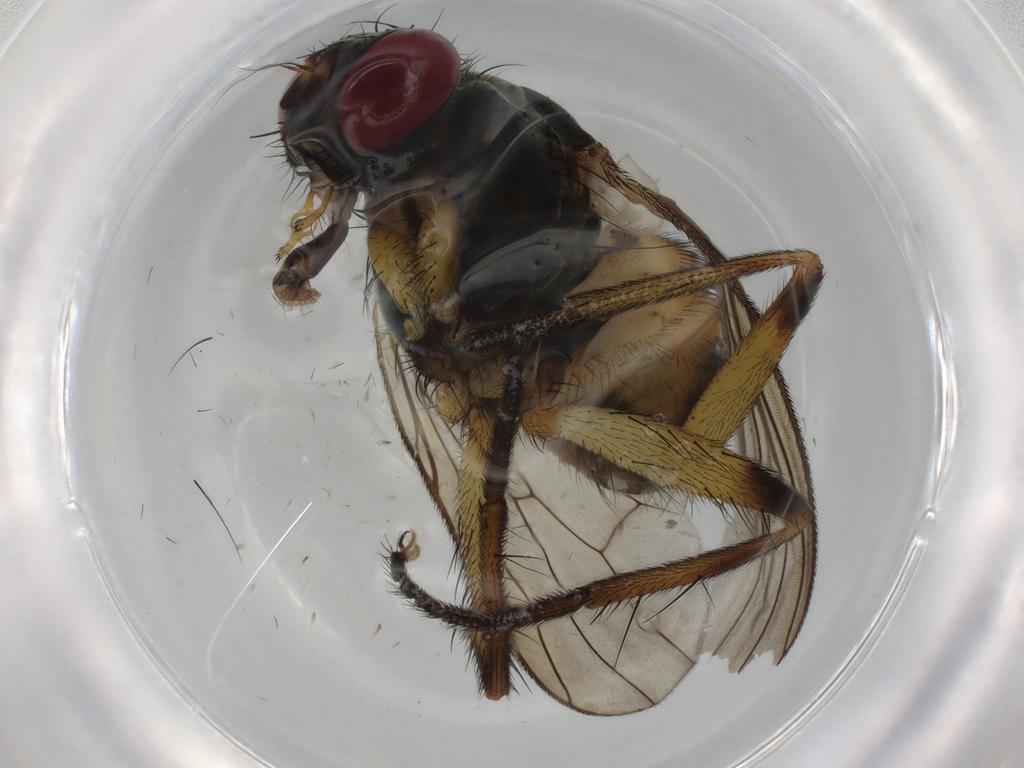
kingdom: Animalia
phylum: Arthropoda
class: Insecta
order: Diptera
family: Muscidae
